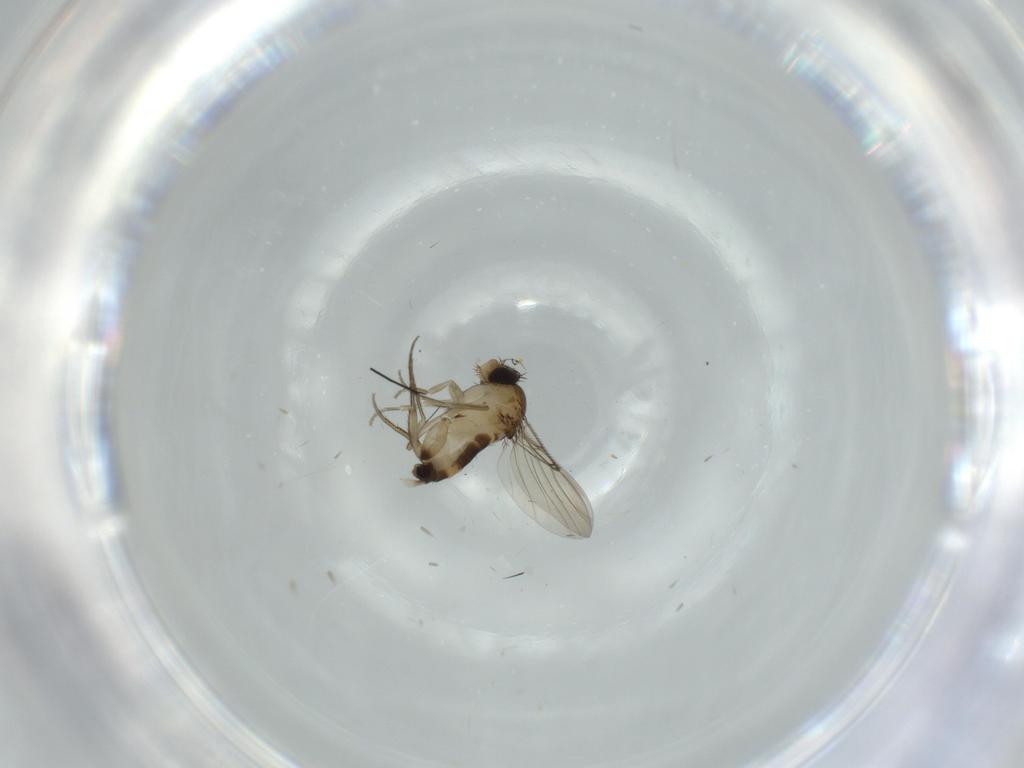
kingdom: Animalia
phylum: Arthropoda
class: Insecta
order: Diptera
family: Phoridae
